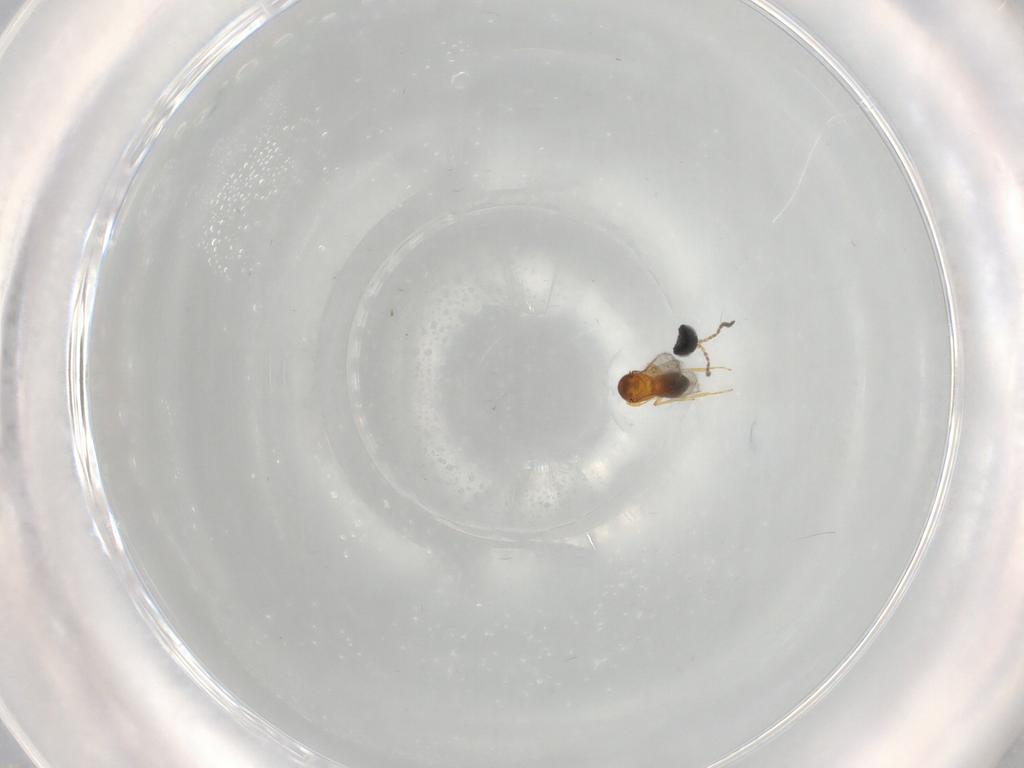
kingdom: Animalia
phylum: Arthropoda
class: Insecta
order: Hymenoptera
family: Scelionidae
